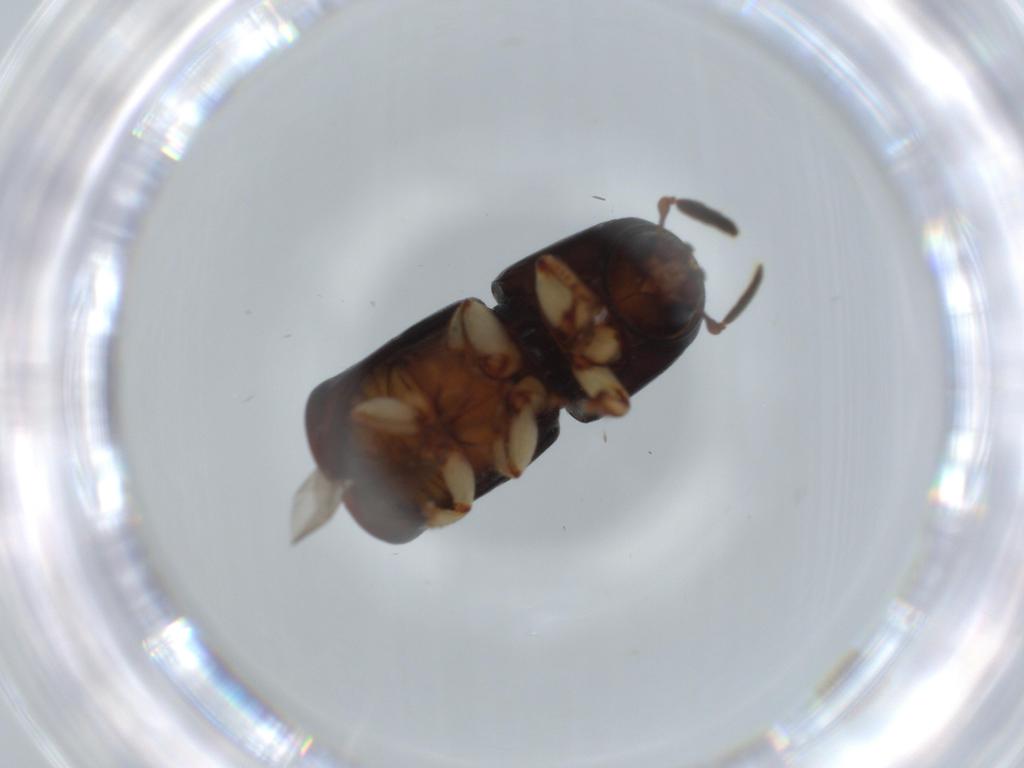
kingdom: Animalia
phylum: Arthropoda
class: Insecta
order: Coleoptera
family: Curculionidae
